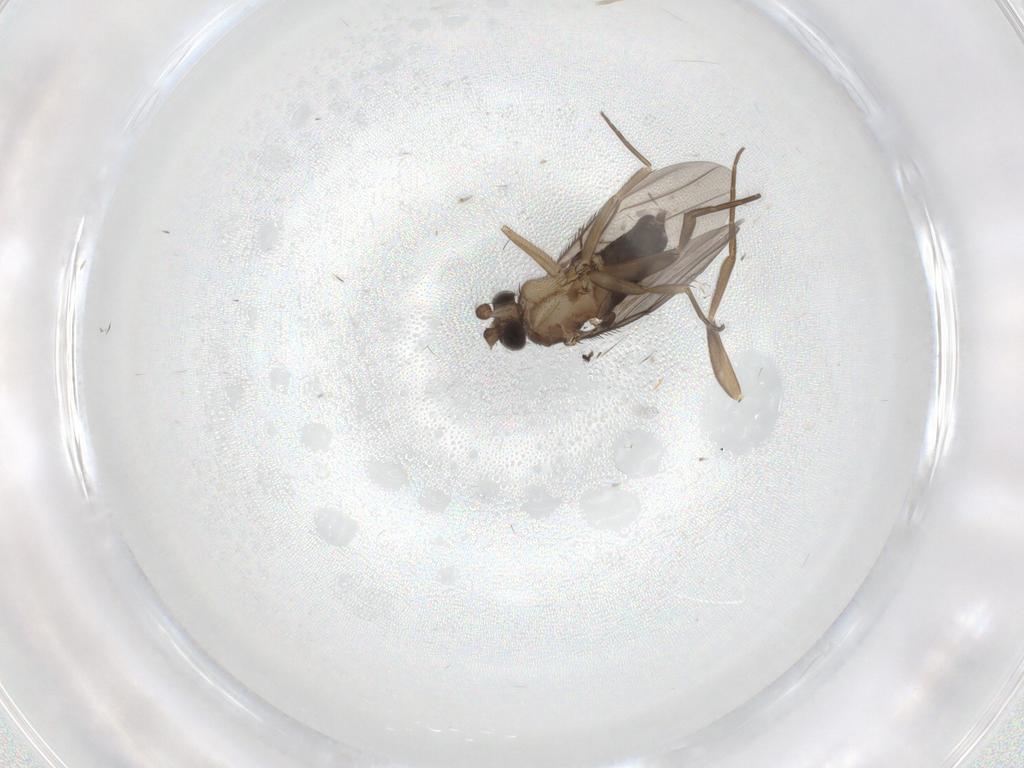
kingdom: Animalia
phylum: Arthropoda
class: Insecta
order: Diptera
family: Phoridae
